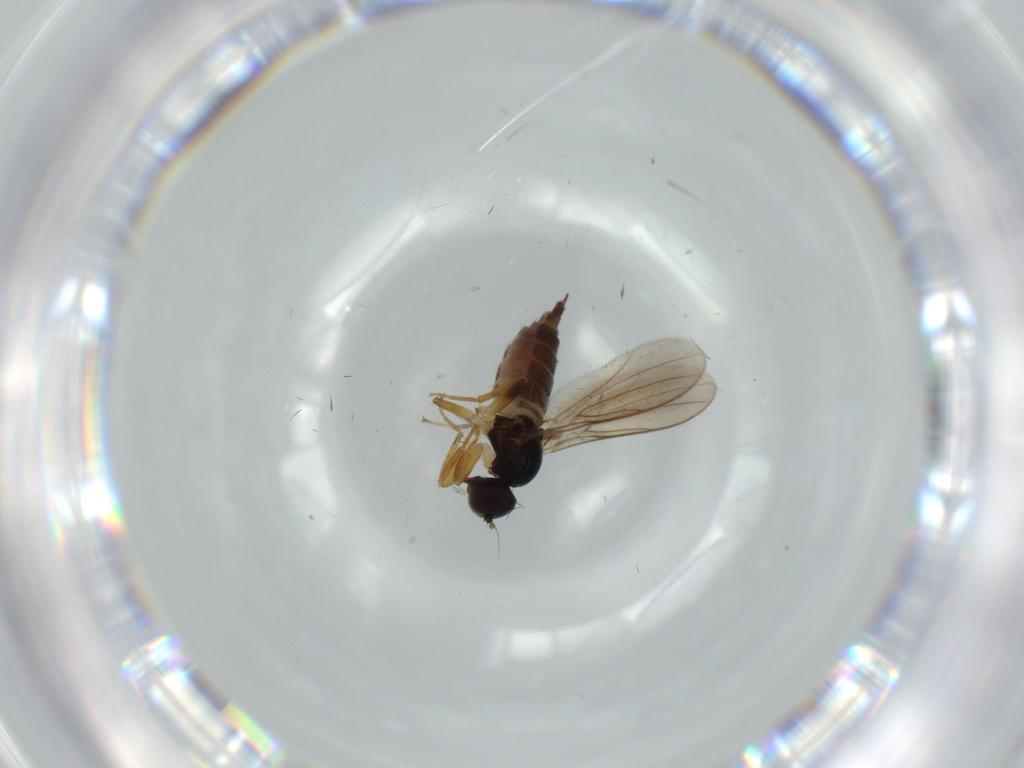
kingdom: Animalia
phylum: Arthropoda
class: Insecta
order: Diptera
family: Hybotidae
